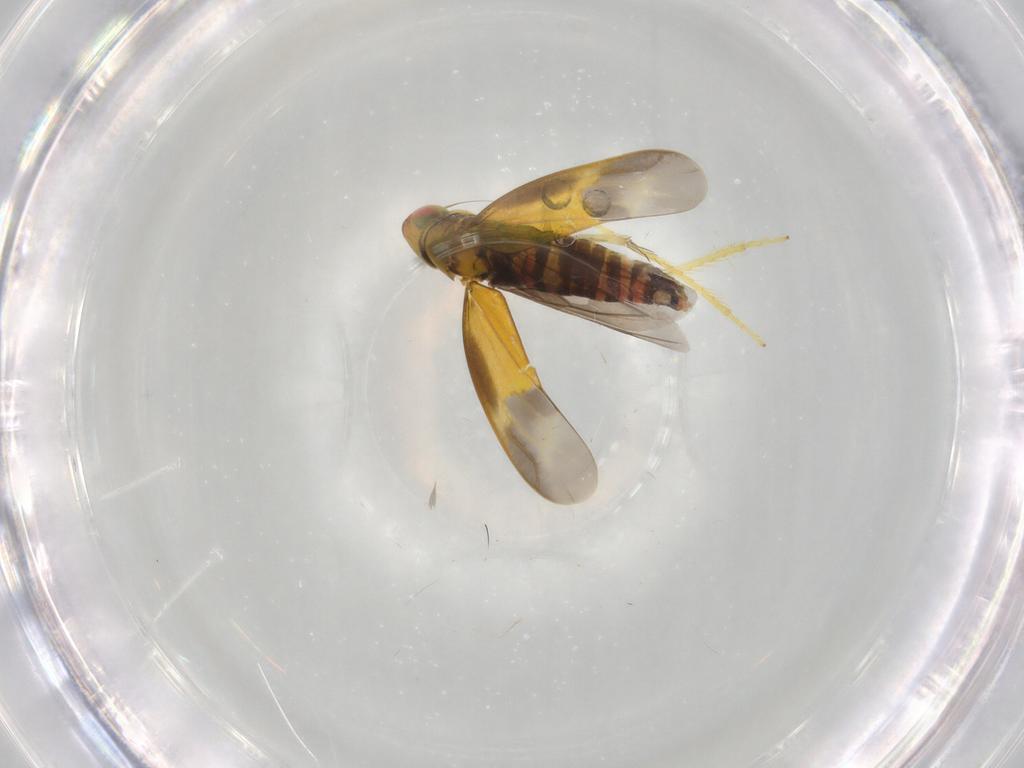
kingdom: Animalia
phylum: Arthropoda
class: Insecta
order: Hemiptera
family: Cicadellidae
